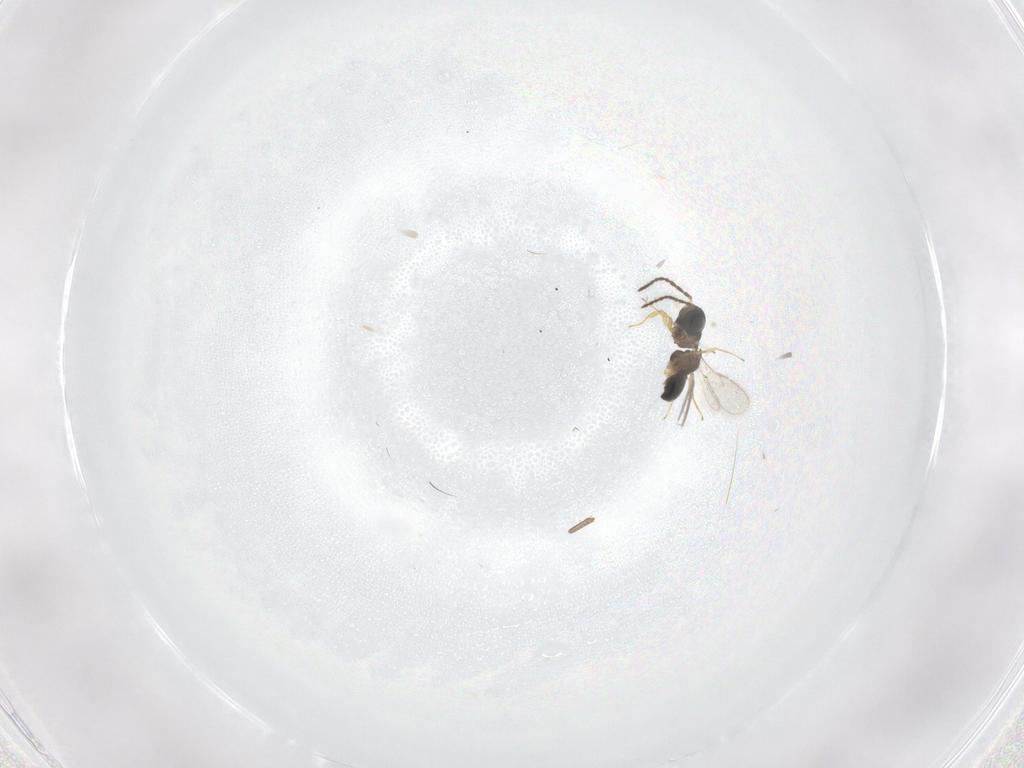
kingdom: Animalia
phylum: Arthropoda
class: Insecta
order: Hymenoptera
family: Scelionidae
